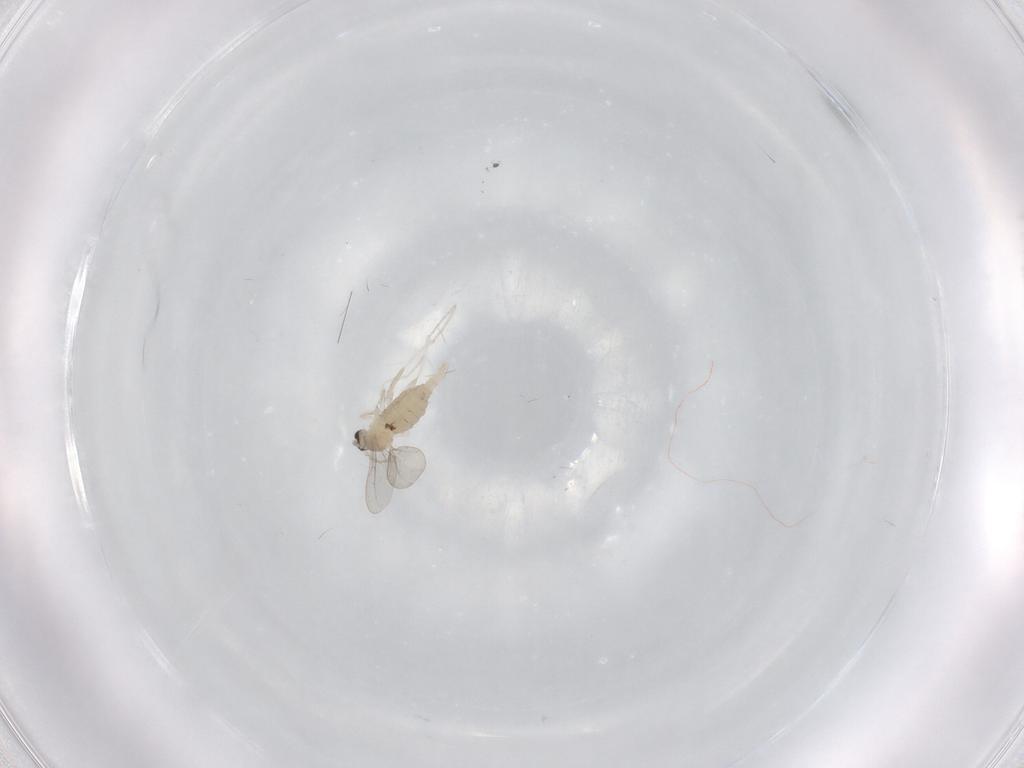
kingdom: Animalia
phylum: Arthropoda
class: Insecta
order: Diptera
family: Cecidomyiidae
